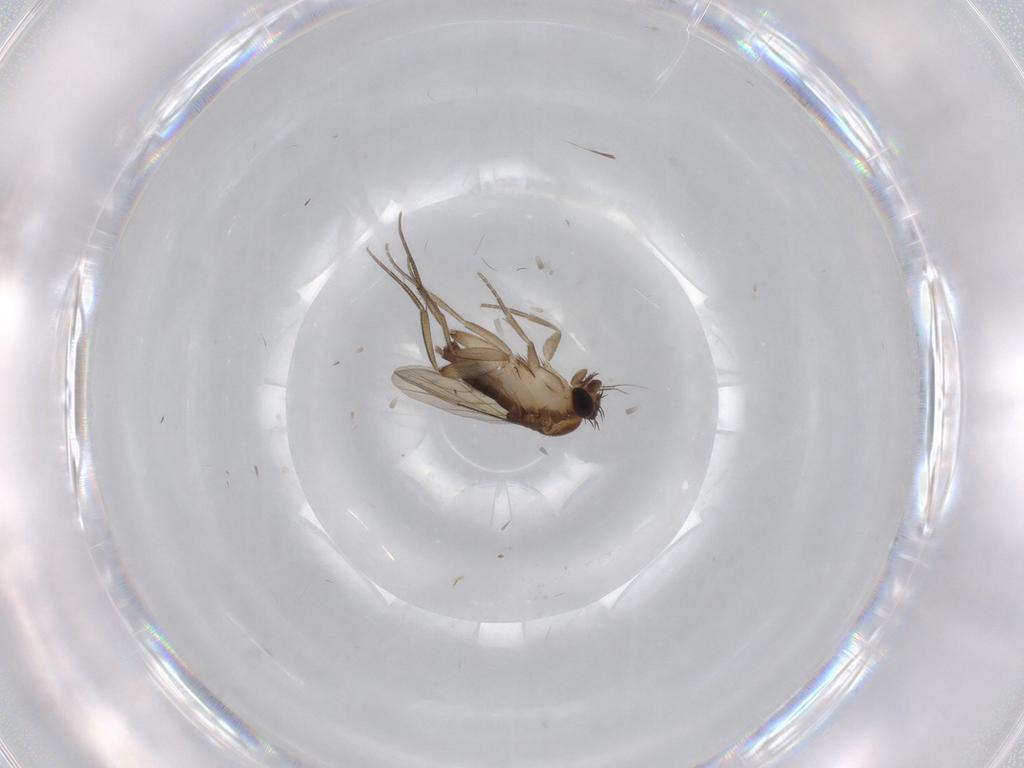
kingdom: Animalia
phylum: Arthropoda
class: Insecta
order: Diptera
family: Phoridae
